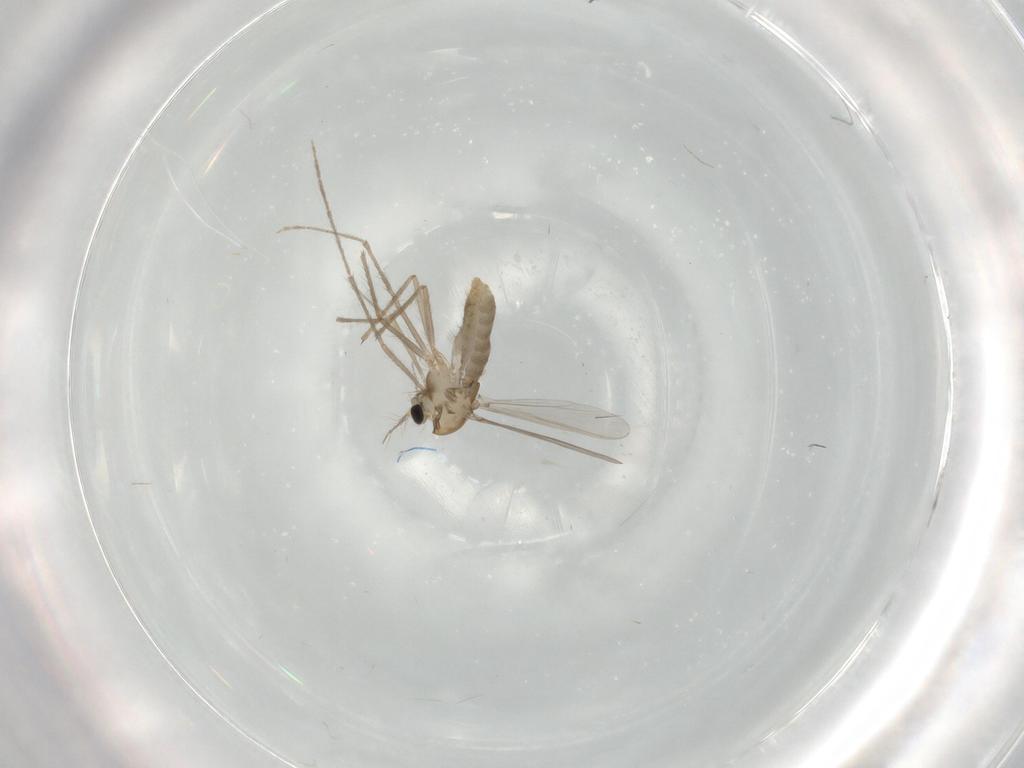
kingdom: Animalia
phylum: Arthropoda
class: Insecta
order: Diptera
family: Chironomidae
